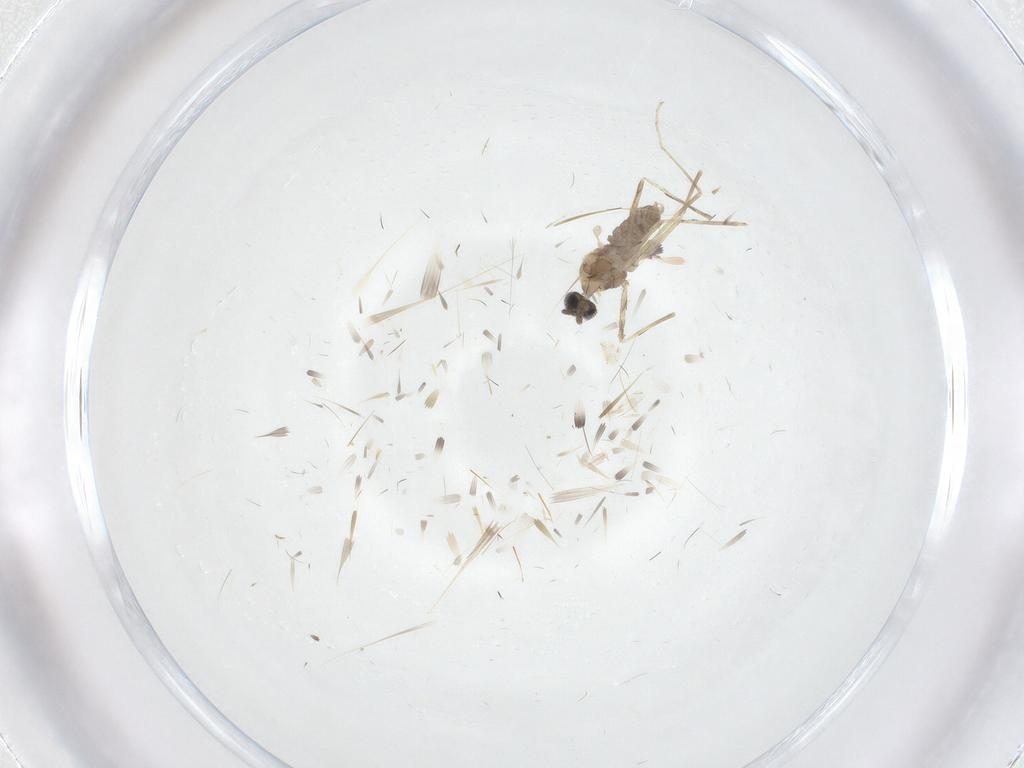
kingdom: Animalia
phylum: Arthropoda
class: Insecta
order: Diptera
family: Cecidomyiidae
